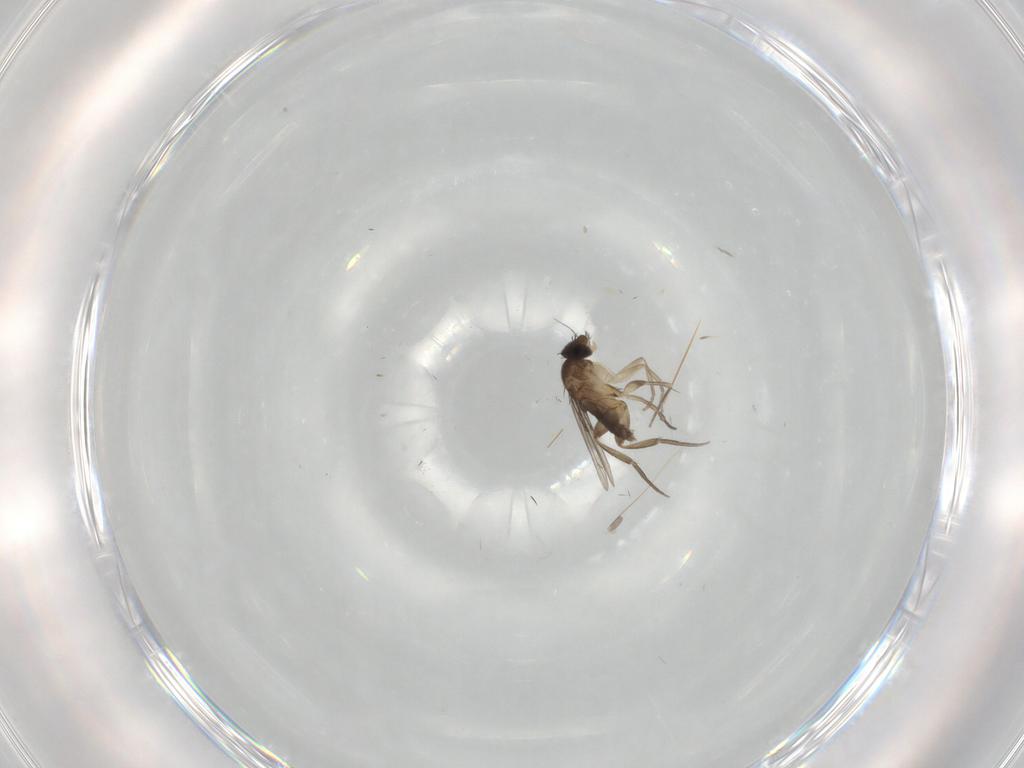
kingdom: Animalia
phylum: Arthropoda
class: Insecta
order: Diptera
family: Phoridae
